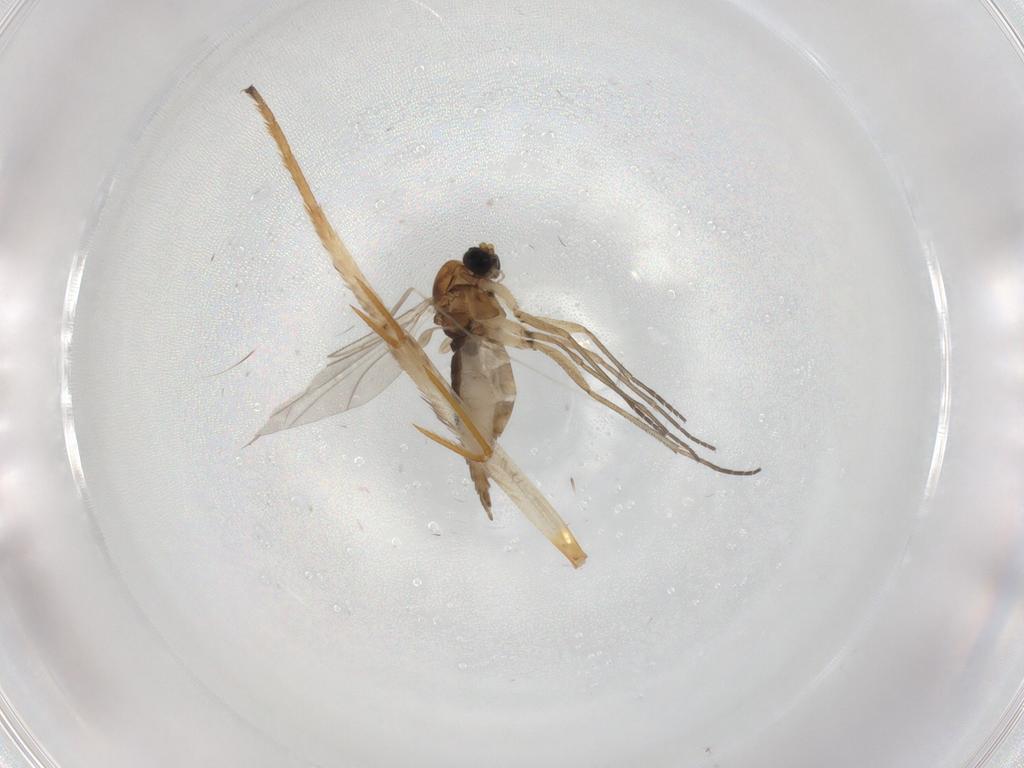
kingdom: Animalia
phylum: Arthropoda
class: Insecta
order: Diptera
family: Sciaridae
